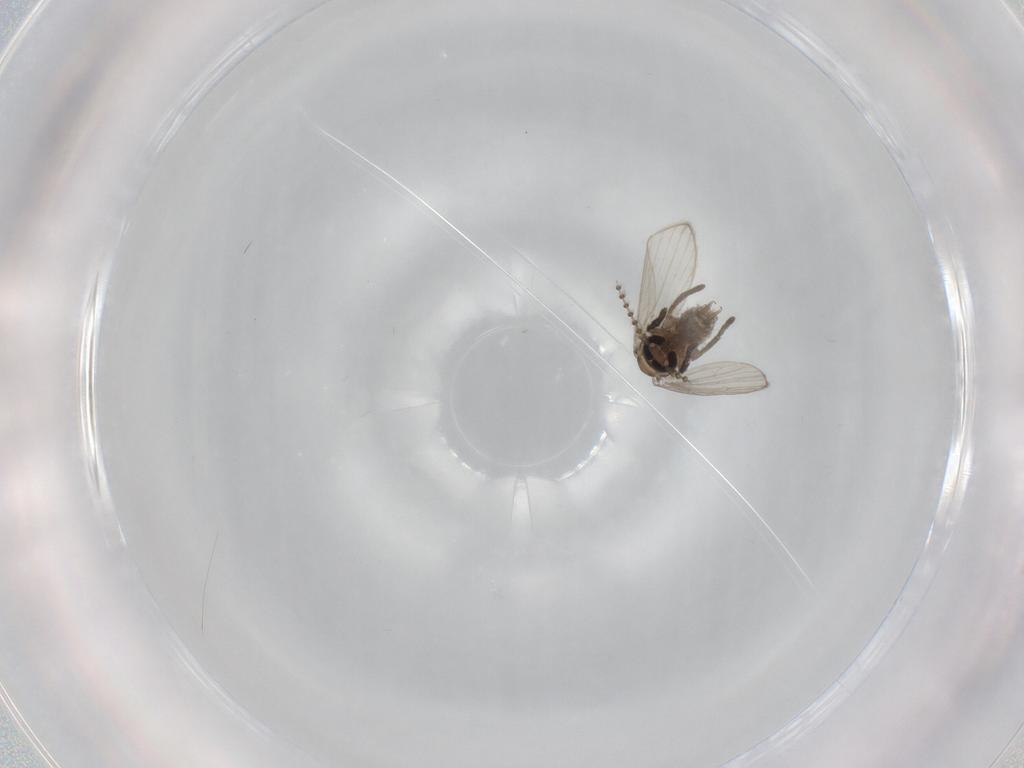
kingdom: Animalia
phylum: Arthropoda
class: Insecta
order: Diptera
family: Psychodidae
